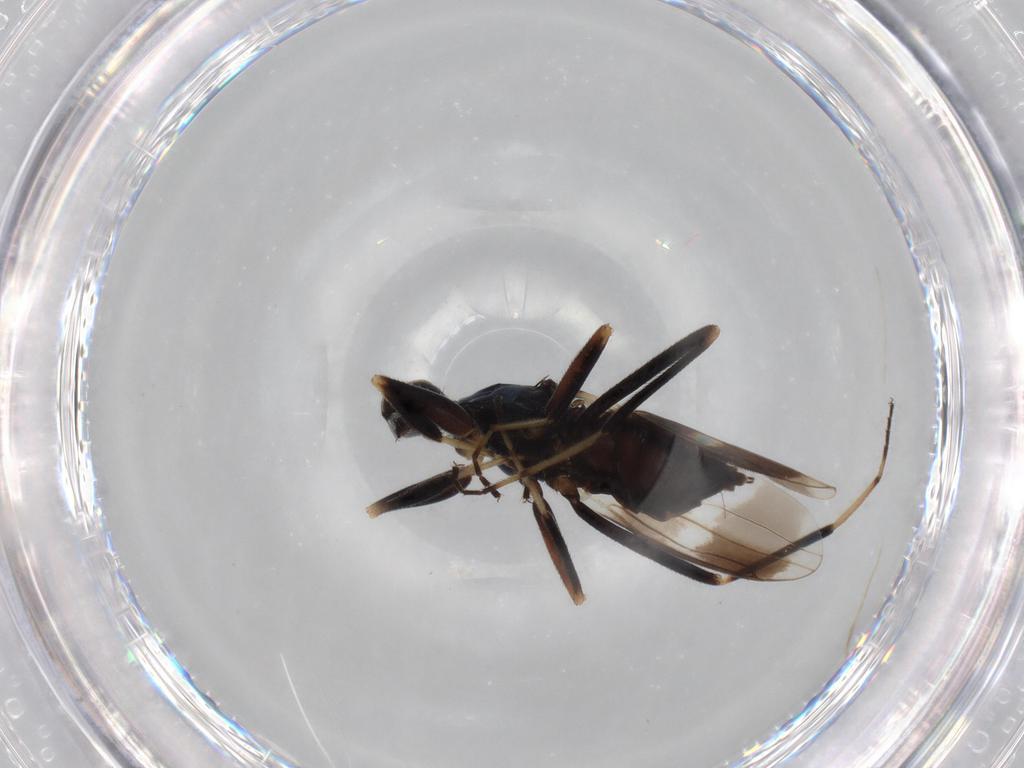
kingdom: Animalia
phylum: Arthropoda
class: Insecta
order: Diptera
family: Hybotidae
